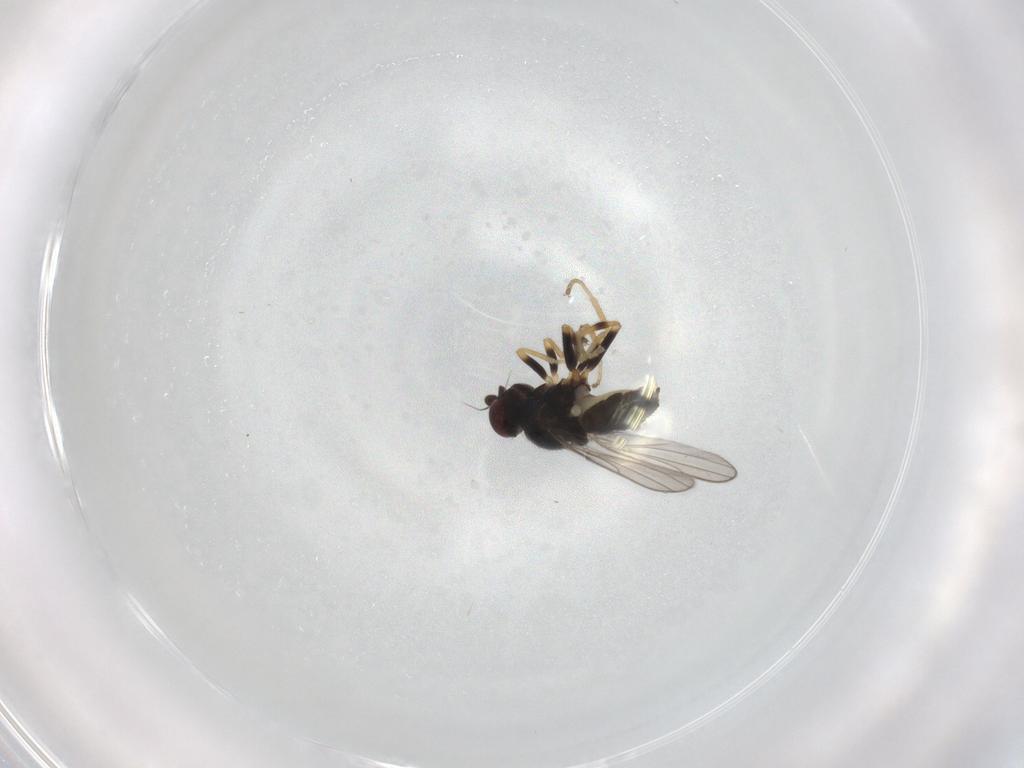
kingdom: Animalia
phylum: Arthropoda
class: Insecta
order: Diptera
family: Chloropidae
